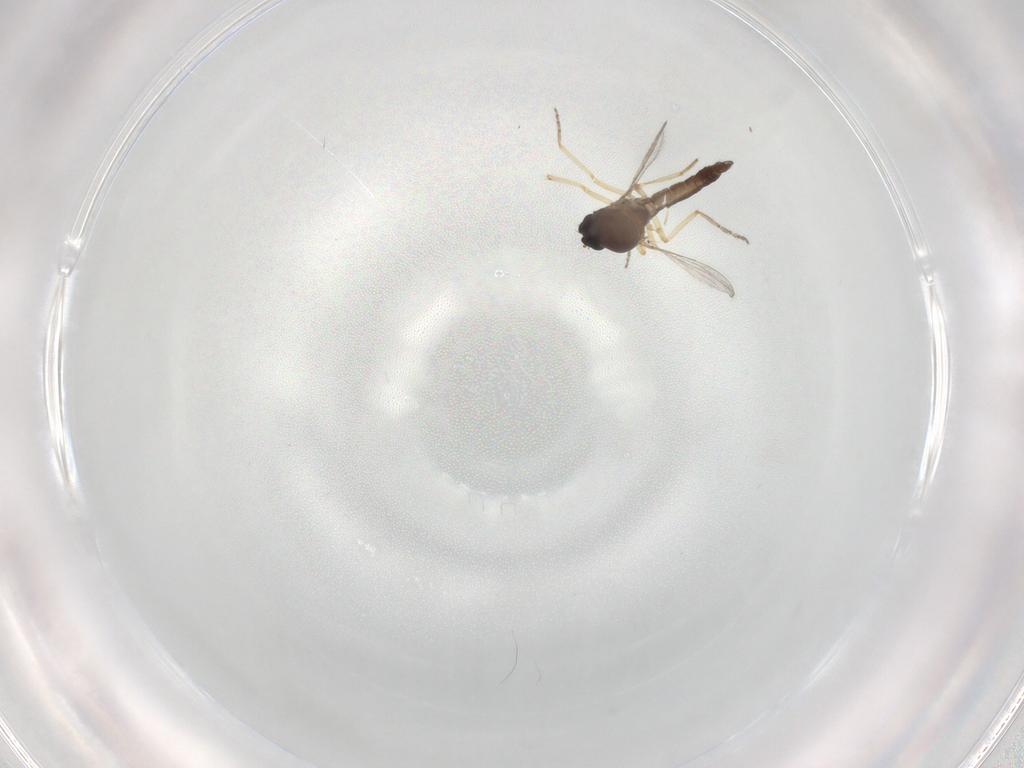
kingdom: Animalia
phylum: Arthropoda
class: Insecta
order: Diptera
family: Ceratopogonidae
